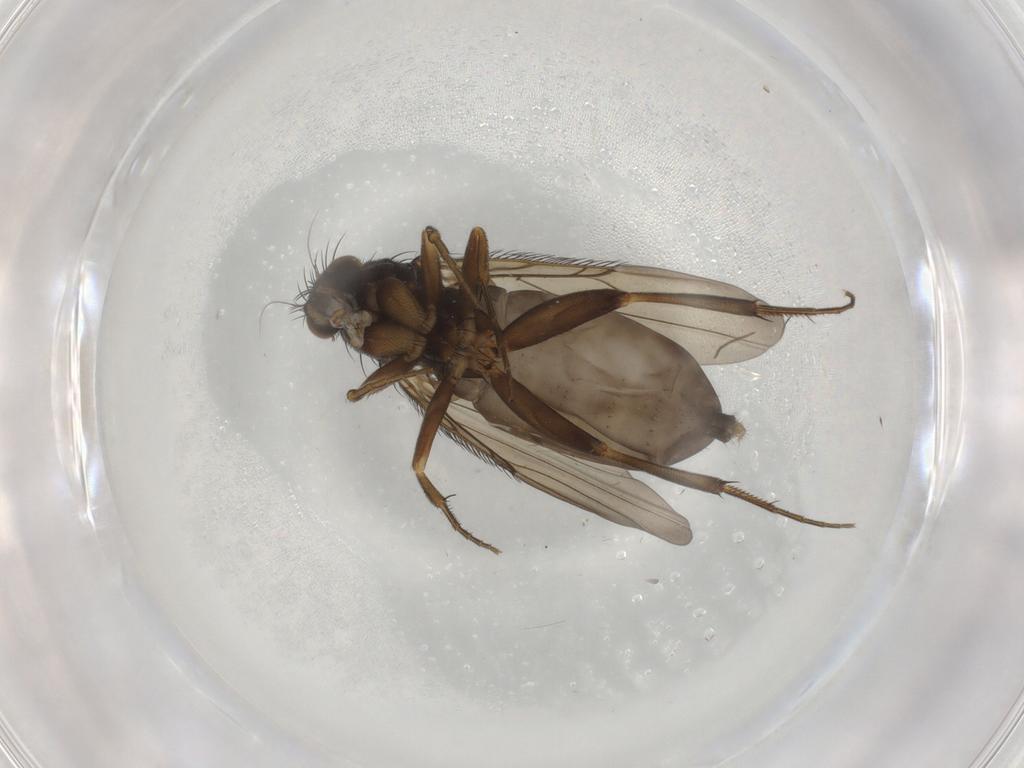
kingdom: Animalia
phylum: Arthropoda
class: Insecta
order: Diptera
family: Phoridae
